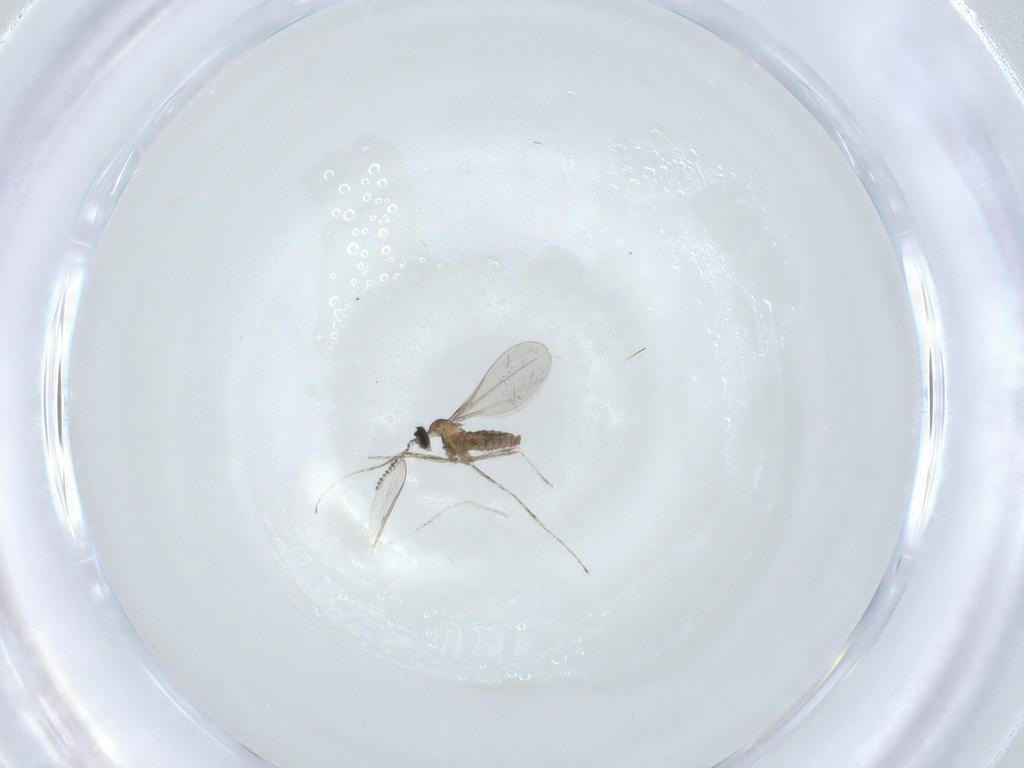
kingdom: Animalia
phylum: Arthropoda
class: Insecta
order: Diptera
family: Cecidomyiidae
